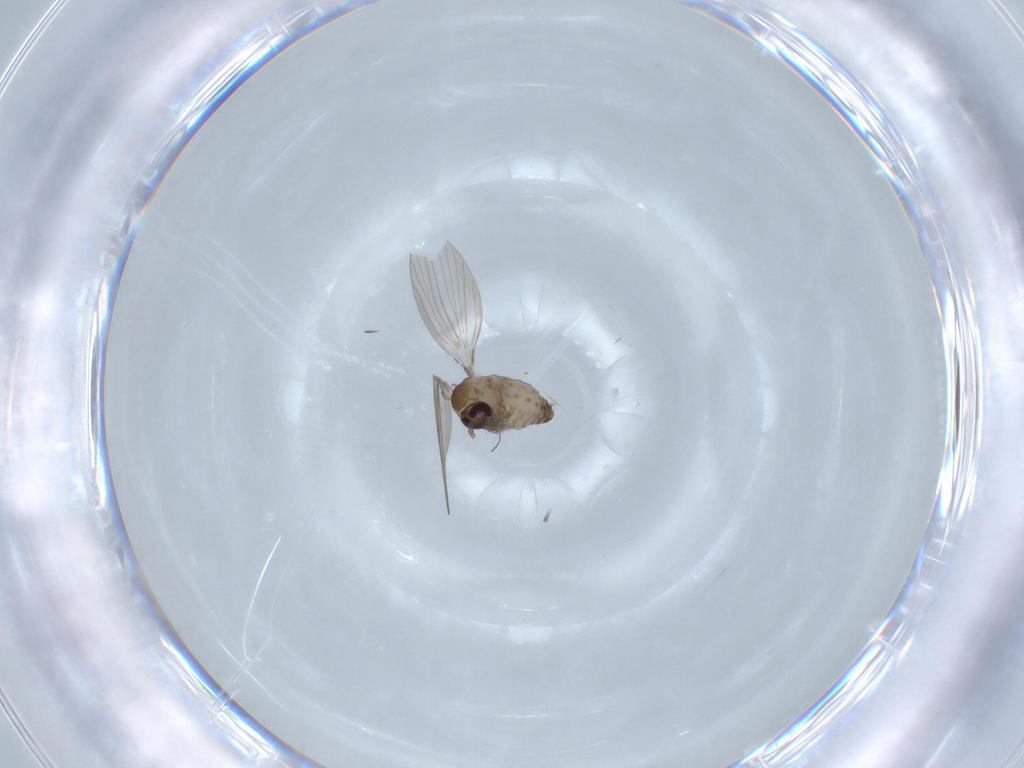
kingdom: Animalia
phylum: Arthropoda
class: Insecta
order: Diptera
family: Psychodidae
